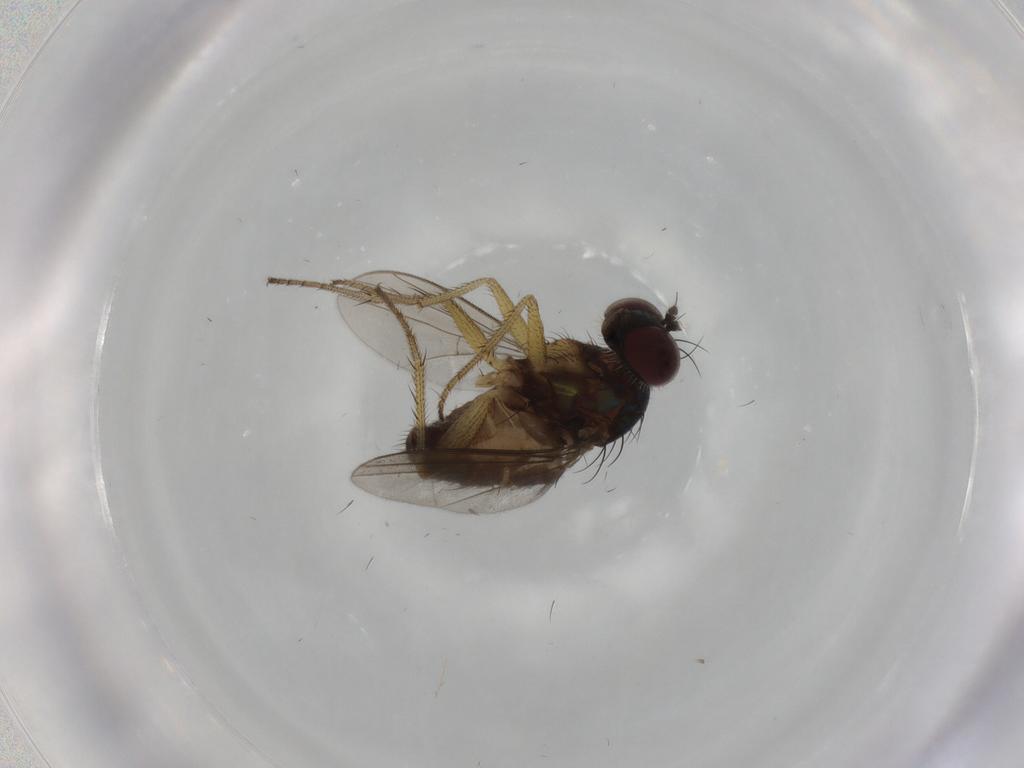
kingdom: Animalia
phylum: Arthropoda
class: Insecta
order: Diptera
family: Dolichopodidae
